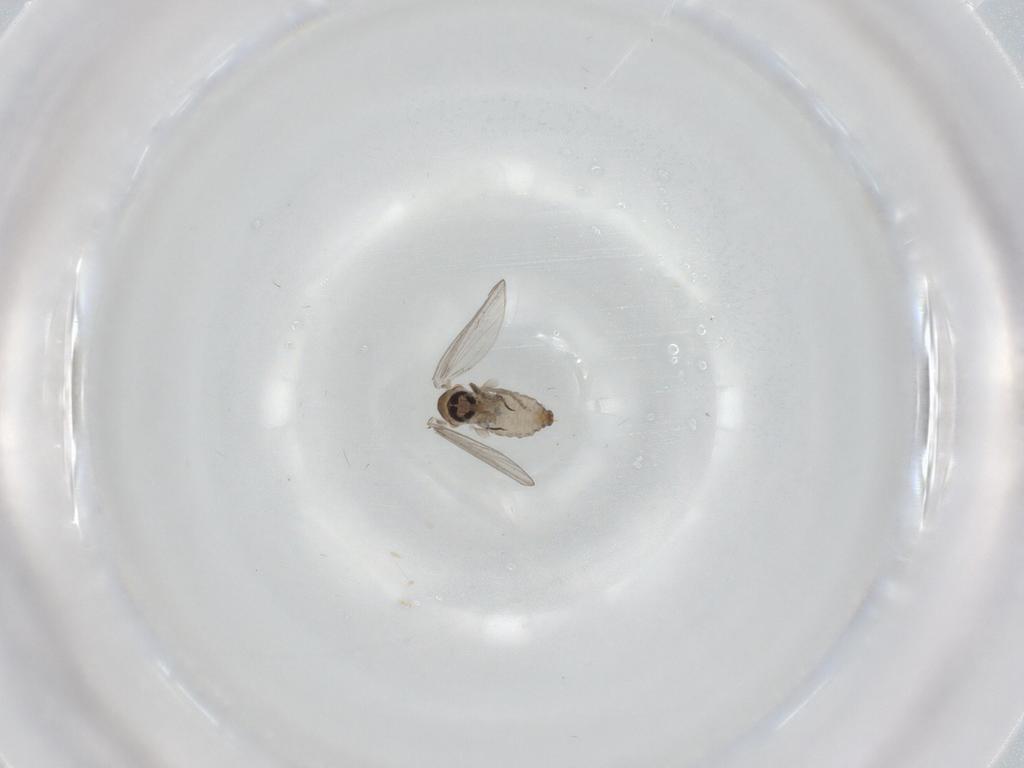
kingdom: Animalia
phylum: Arthropoda
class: Insecta
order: Diptera
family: Psychodidae
